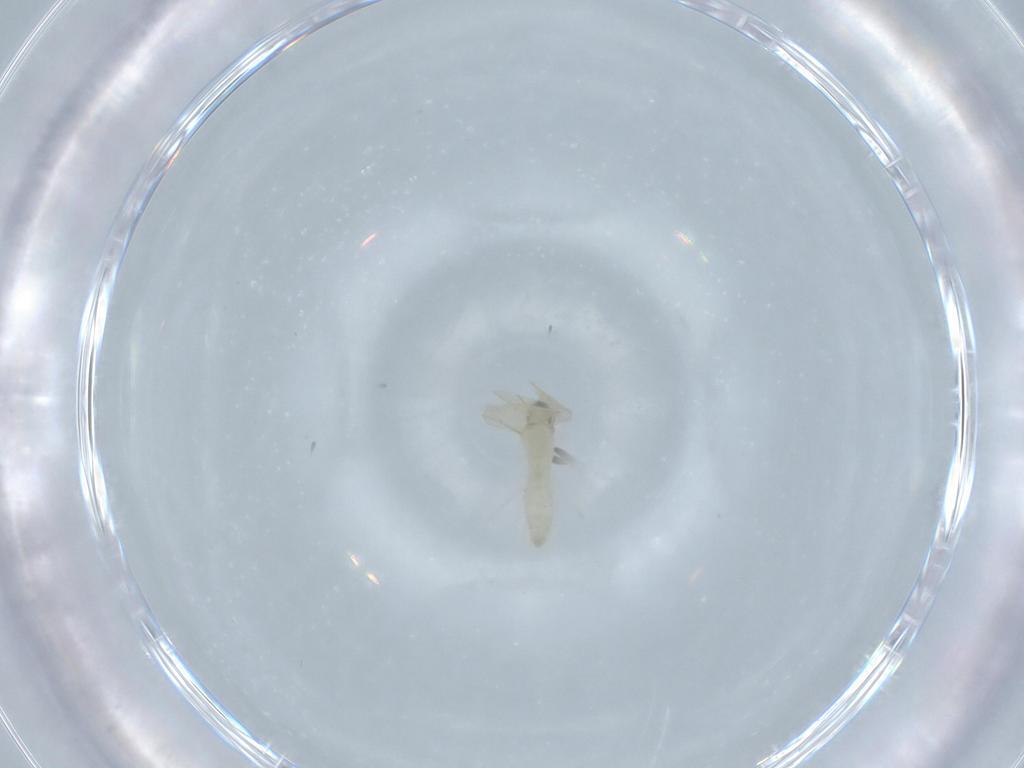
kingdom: Animalia
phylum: Arthropoda
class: Insecta
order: Diptera
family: Cecidomyiidae
